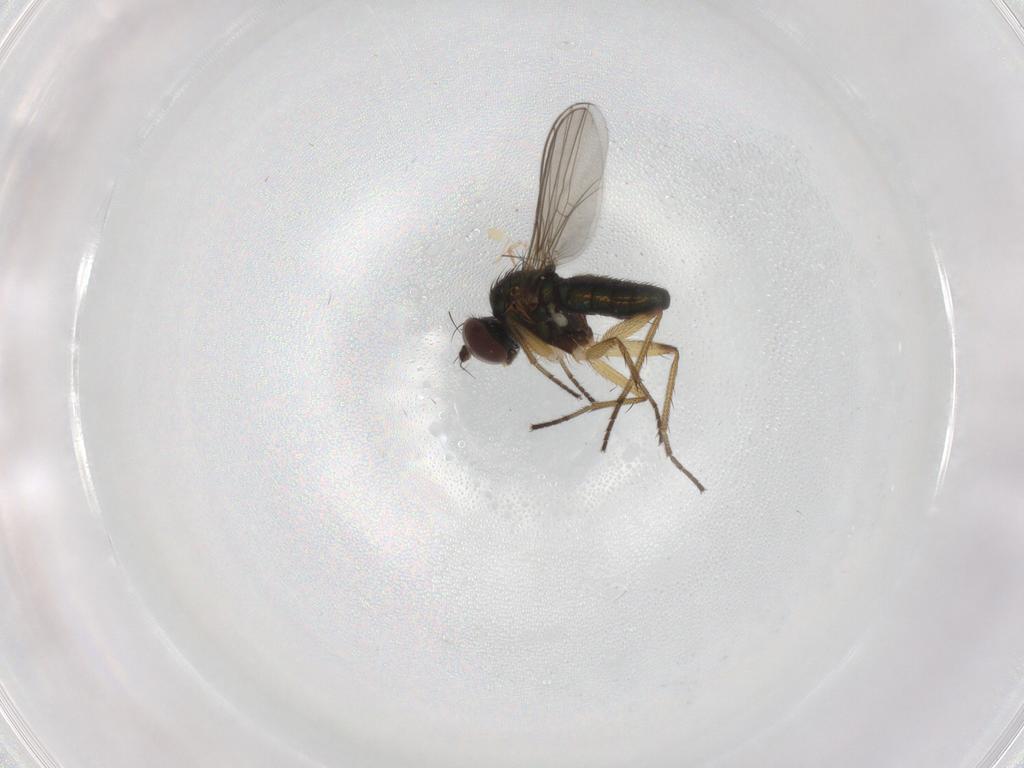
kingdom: Animalia
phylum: Arthropoda
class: Insecta
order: Diptera
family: Dolichopodidae
